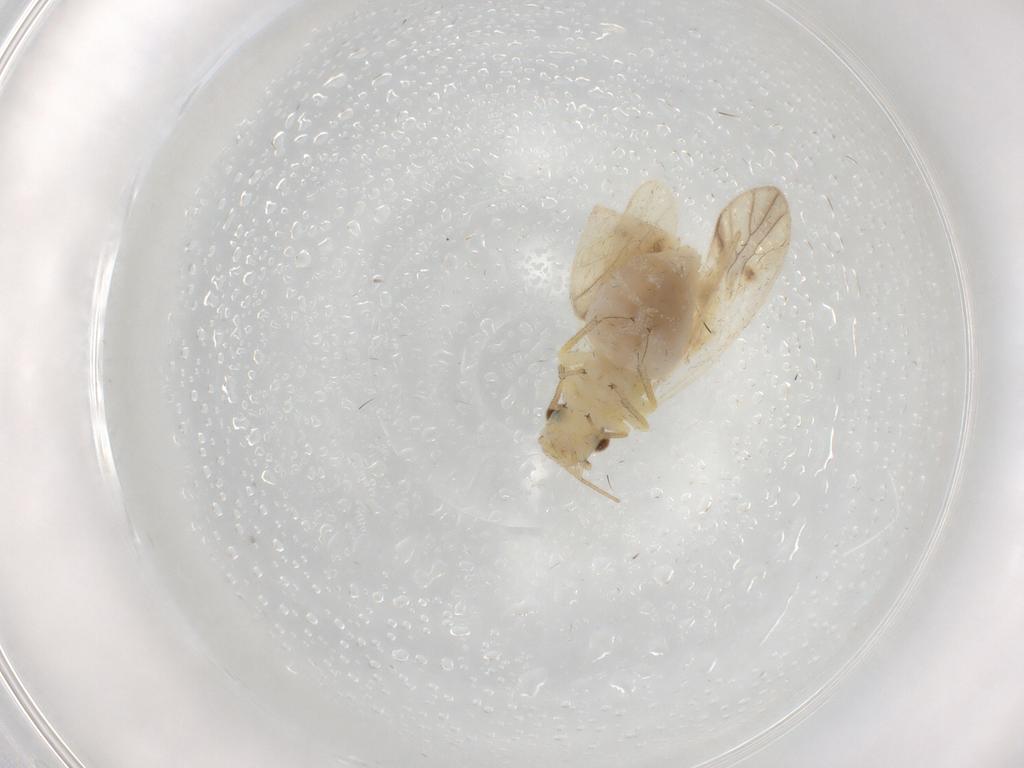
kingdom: Animalia
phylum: Arthropoda
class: Insecta
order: Psocodea
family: Caeciliusidae
